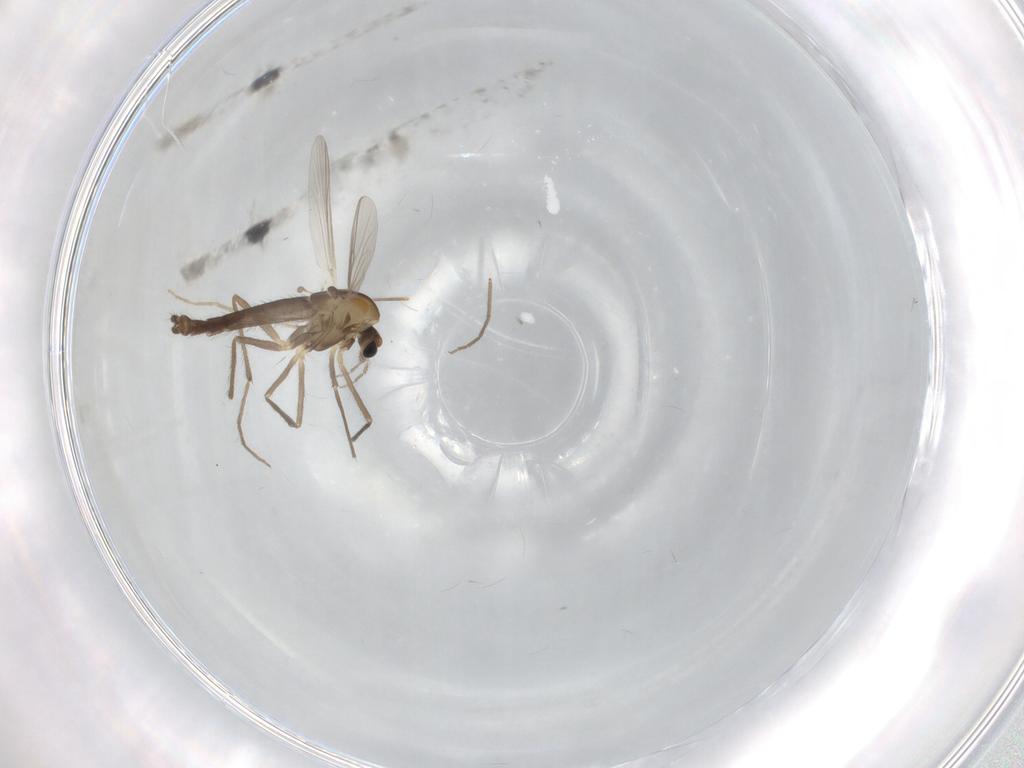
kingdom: Animalia
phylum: Arthropoda
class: Insecta
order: Diptera
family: Chironomidae
